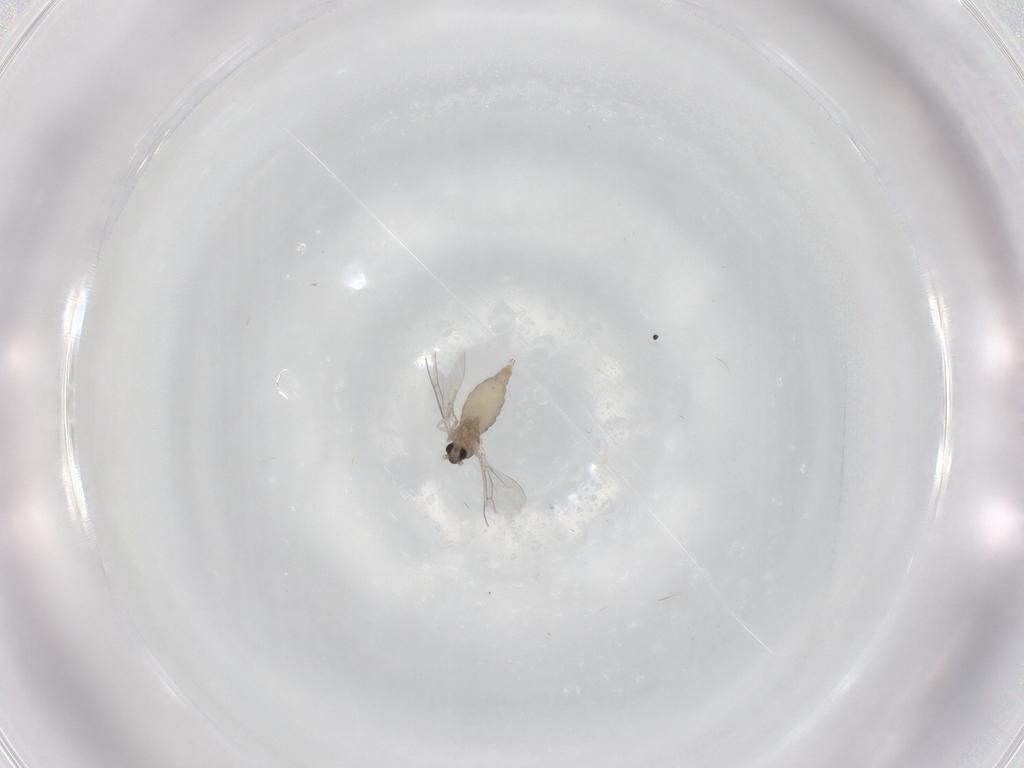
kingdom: Animalia
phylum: Arthropoda
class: Insecta
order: Diptera
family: Cecidomyiidae
